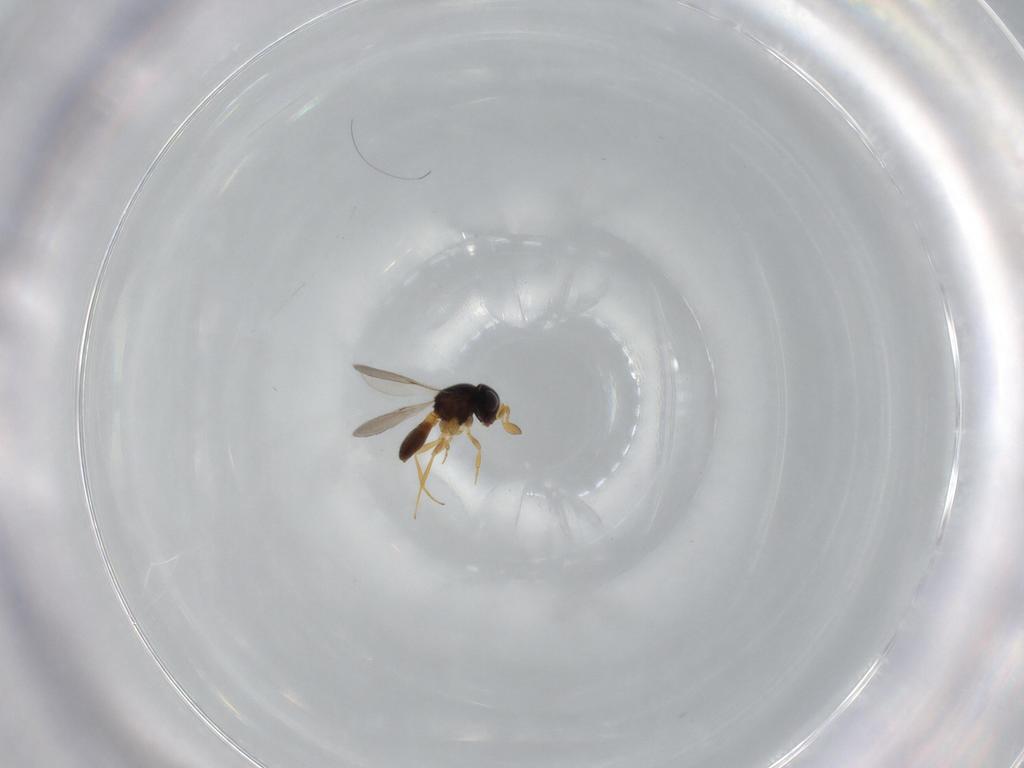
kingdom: Animalia
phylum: Arthropoda
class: Insecta
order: Hymenoptera
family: Scelionidae
